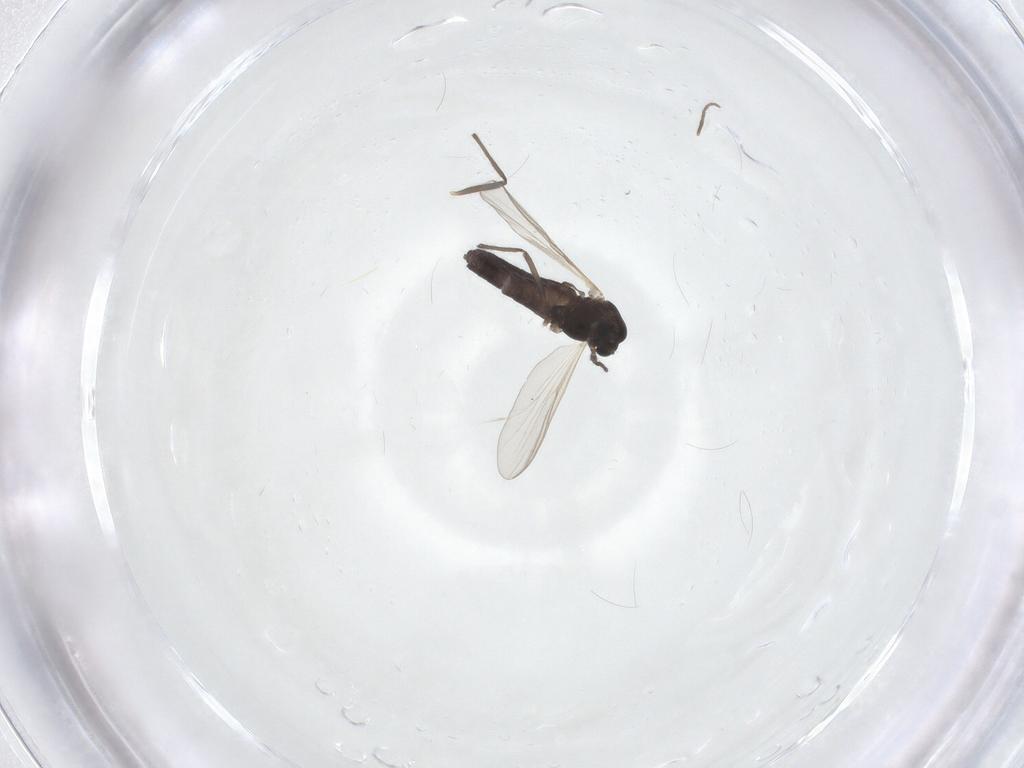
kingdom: Animalia
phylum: Arthropoda
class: Insecta
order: Diptera
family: Chironomidae
